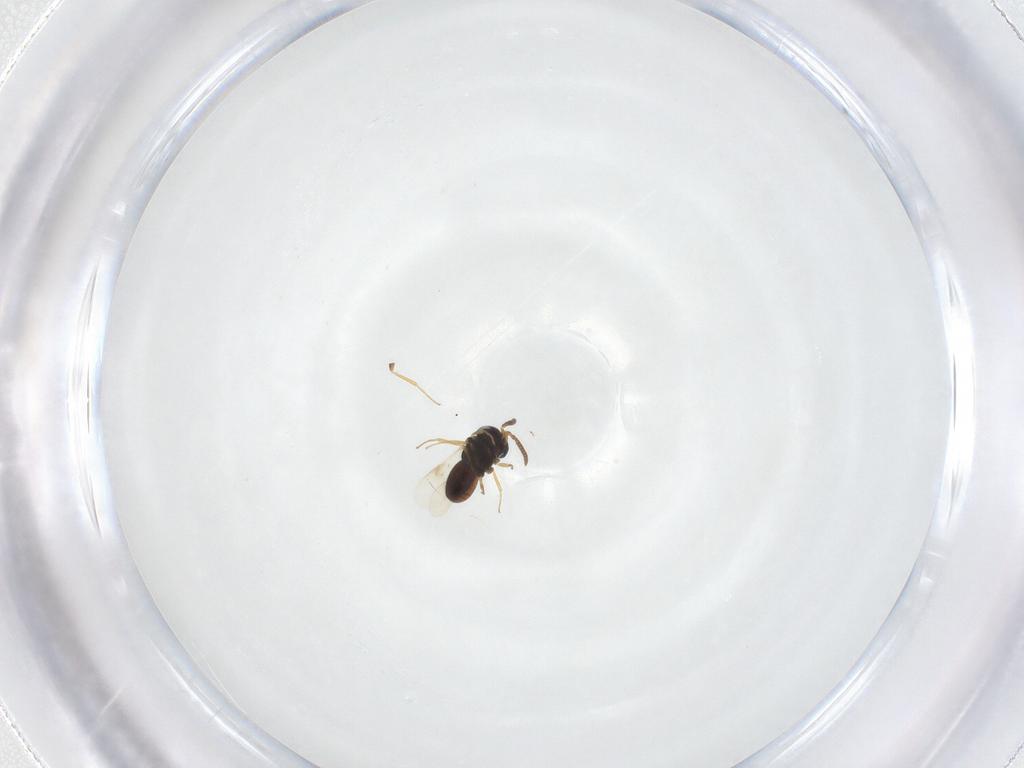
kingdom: Animalia
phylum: Arthropoda
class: Insecta
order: Hymenoptera
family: Scelionidae
